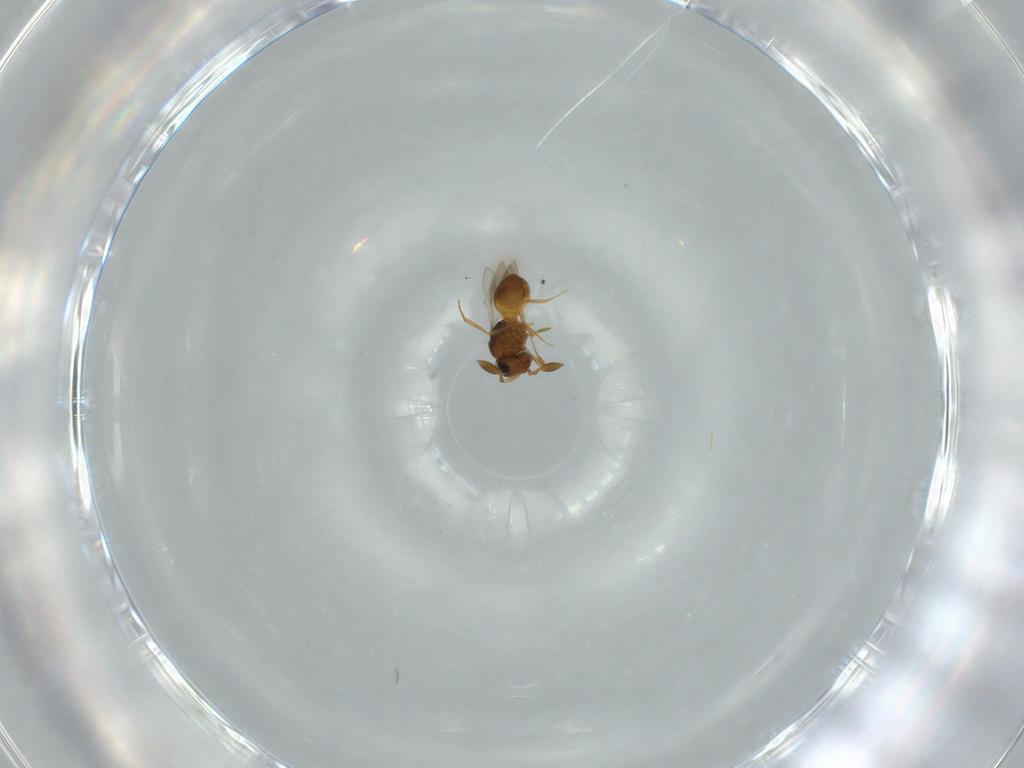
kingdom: Animalia
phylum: Arthropoda
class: Insecta
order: Hymenoptera
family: Scelionidae
